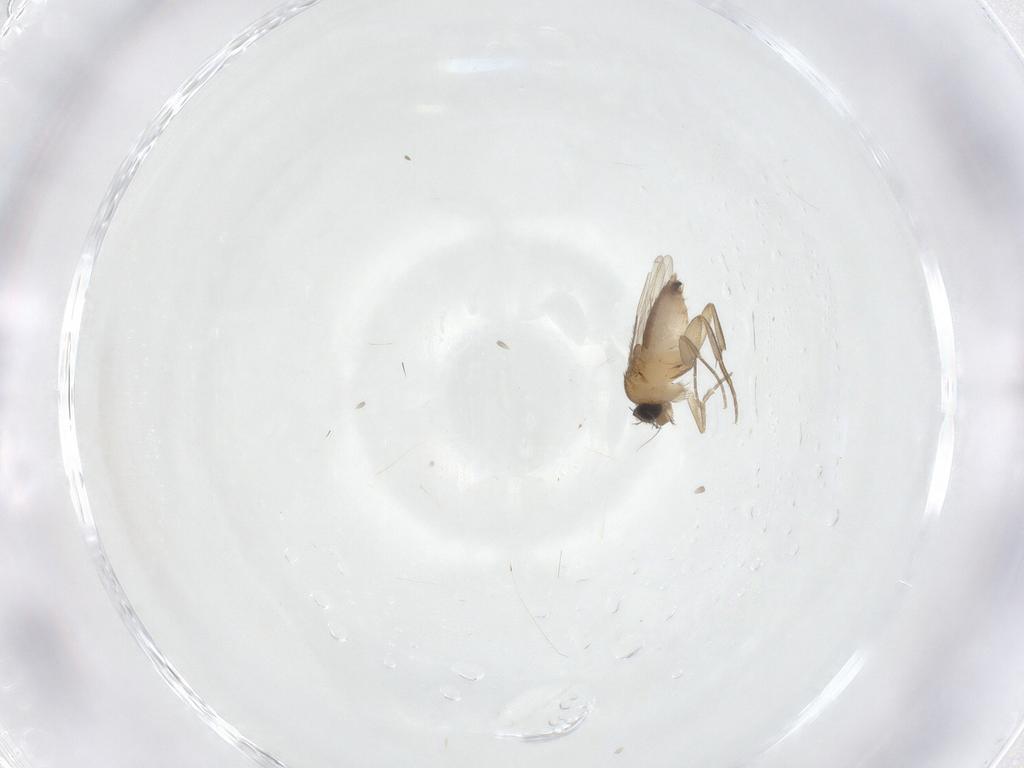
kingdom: Animalia
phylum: Arthropoda
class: Insecta
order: Diptera
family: Phoridae
